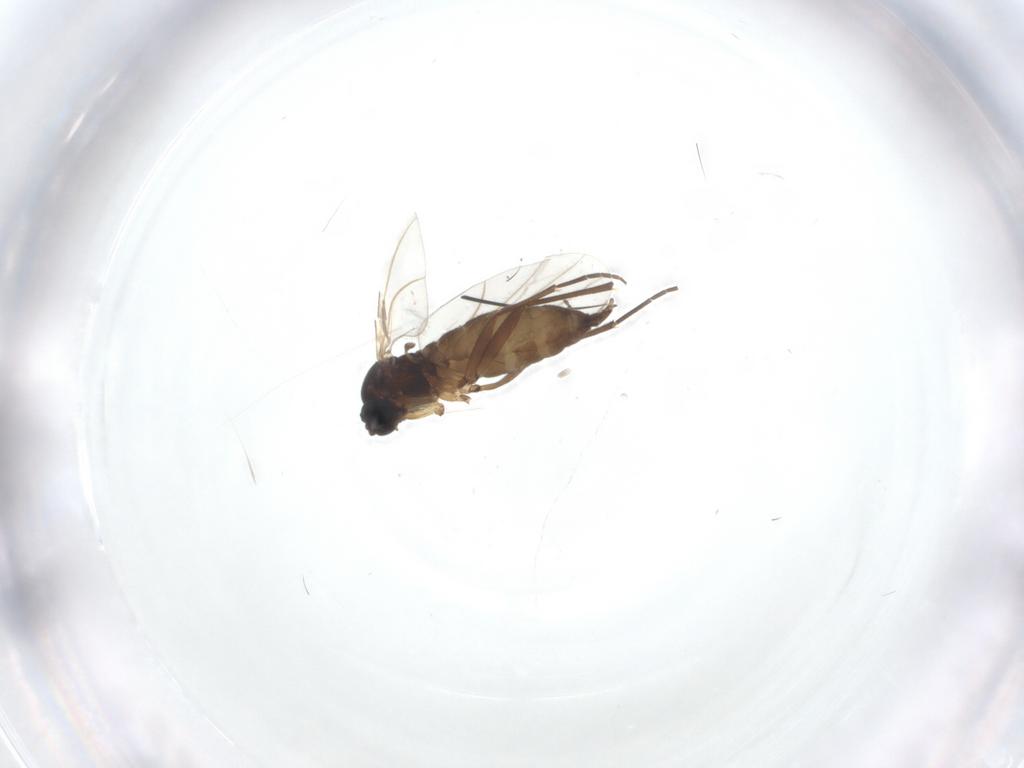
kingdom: Animalia
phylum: Arthropoda
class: Insecta
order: Diptera
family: Sciaridae
